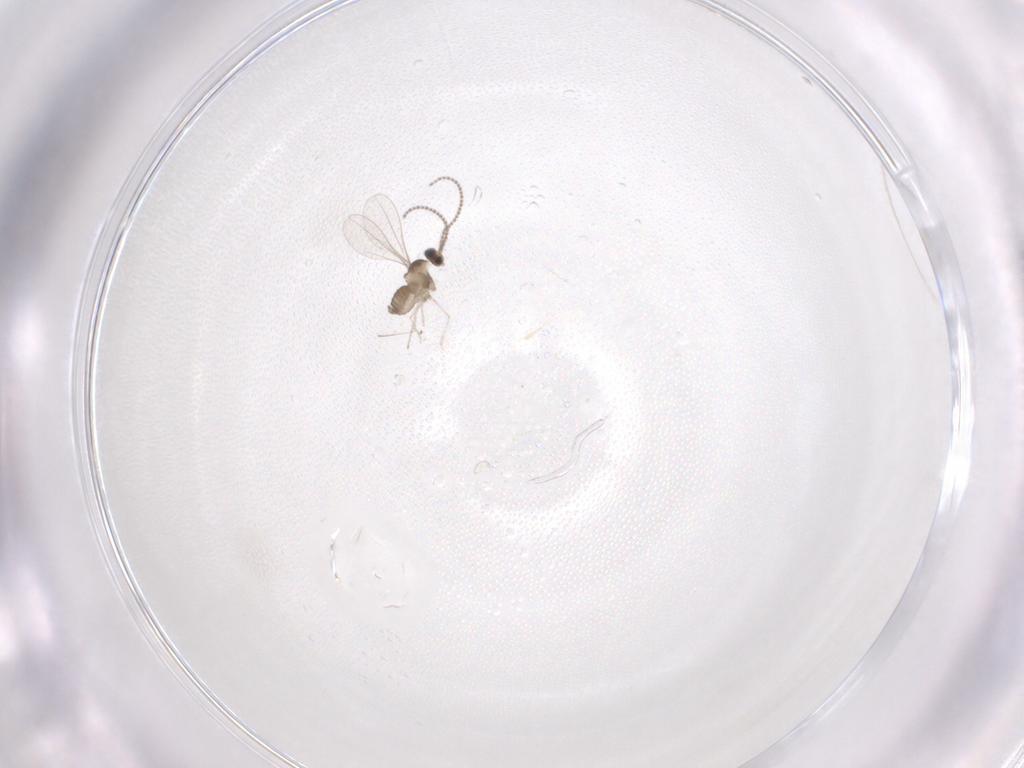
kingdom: Animalia
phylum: Arthropoda
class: Insecta
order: Diptera
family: Cecidomyiidae
